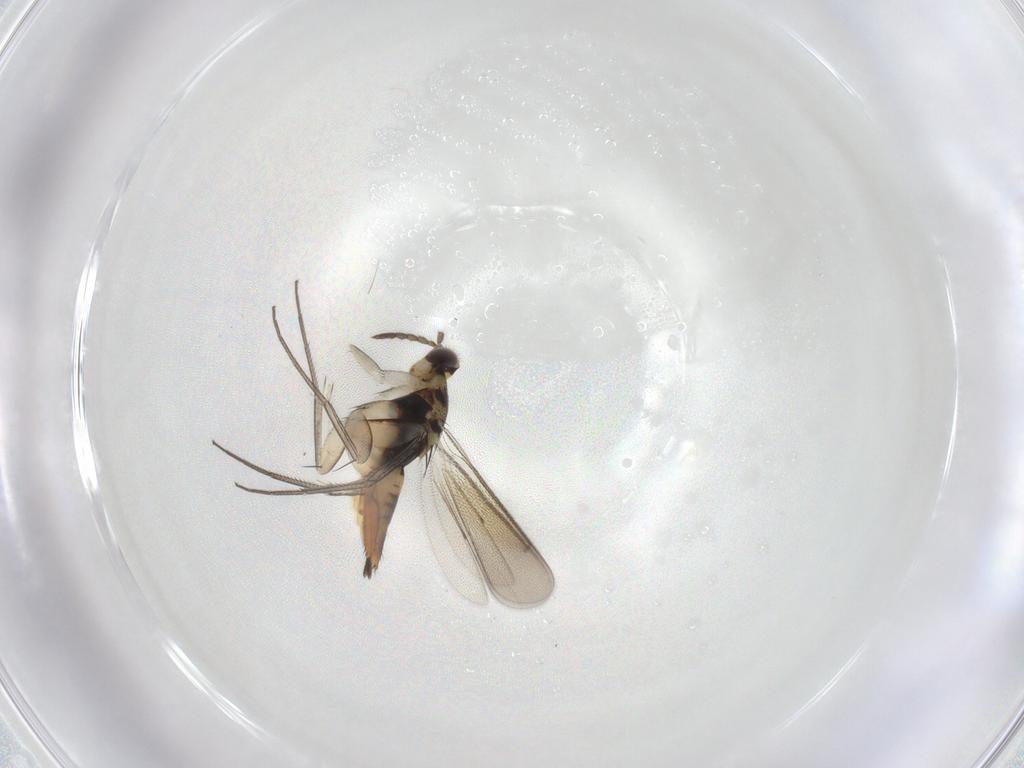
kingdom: Animalia
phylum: Arthropoda
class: Insecta
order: Hymenoptera
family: Eulophidae
